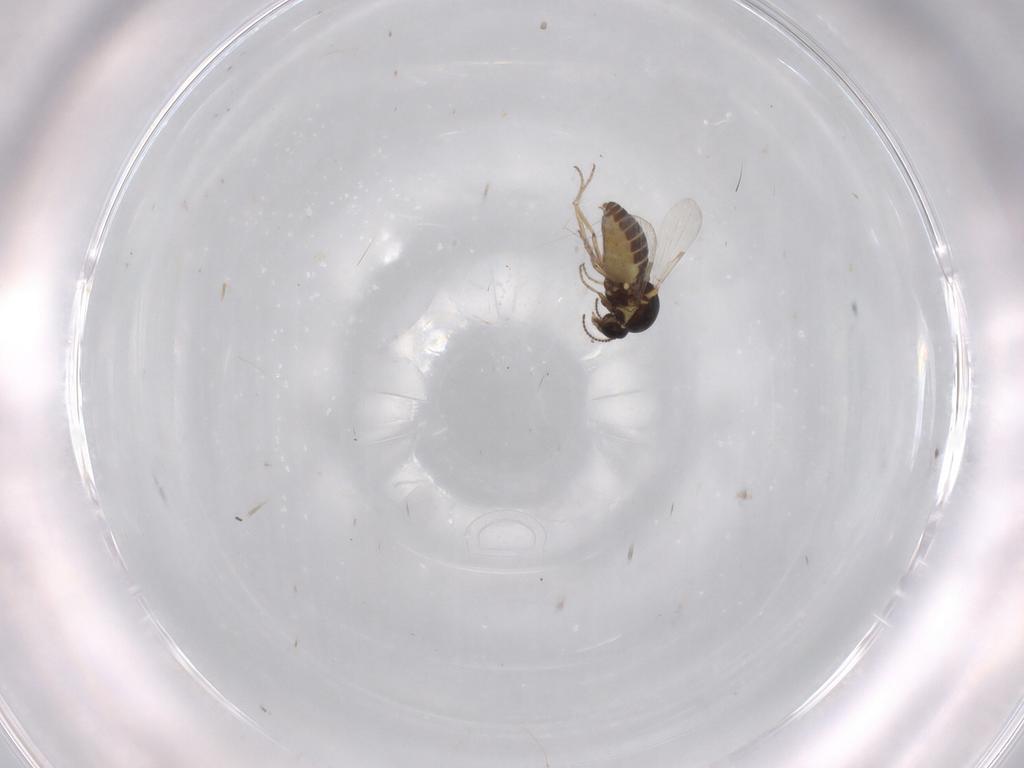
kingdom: Animalia
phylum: Arthropoda
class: Insecta
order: Diptera
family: Ceratopogonidae
